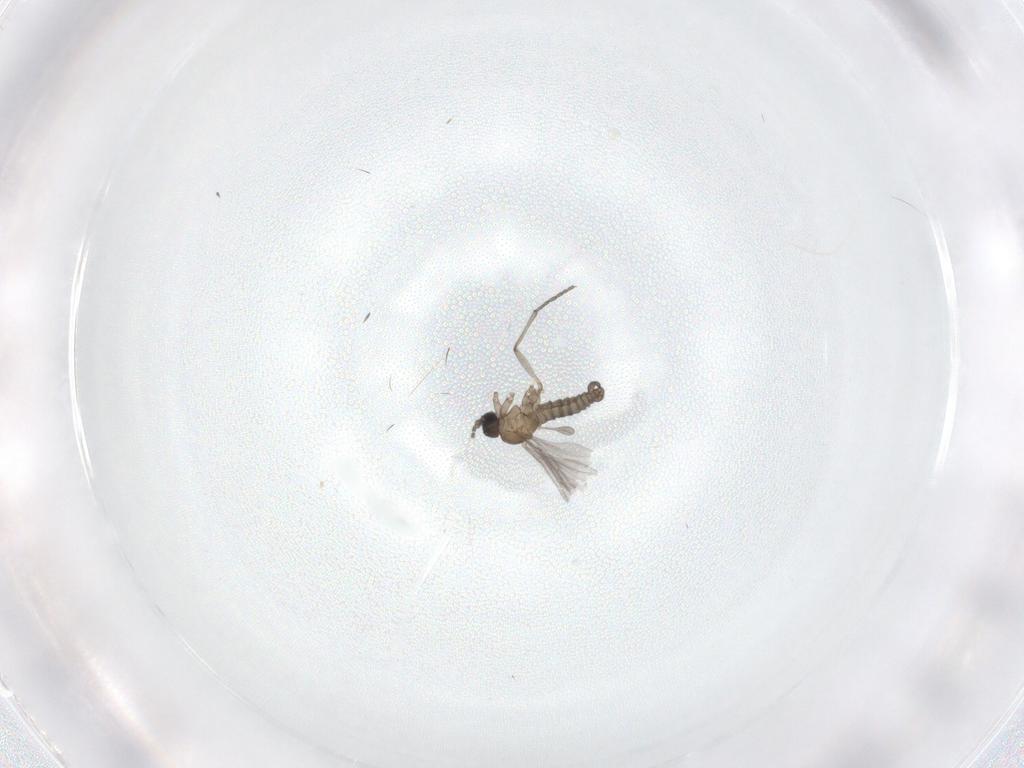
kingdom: Animalia
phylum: Arthropoda
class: Insecta
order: Diptera
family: Sciaridae
